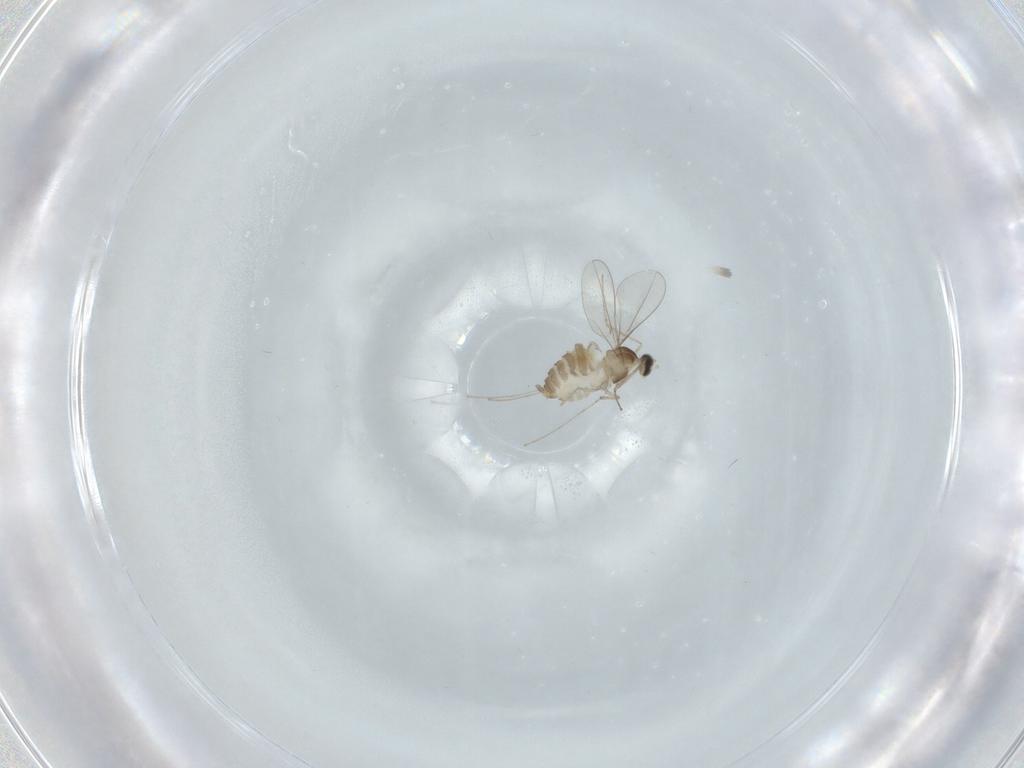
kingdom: Animalia
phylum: Arthropoda
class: Insecta
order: Diptera
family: Cecidomyiidae
